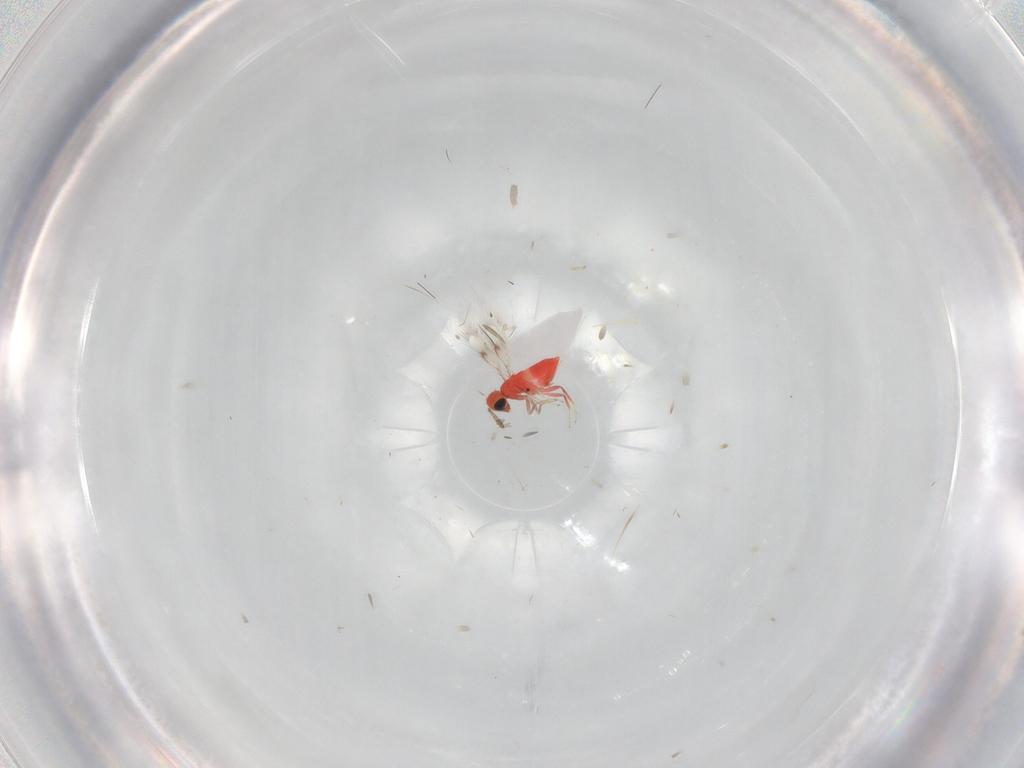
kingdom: Animalia
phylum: Arthropoda
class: Insecta
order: Hymenoptera
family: Trichogrammatidae
